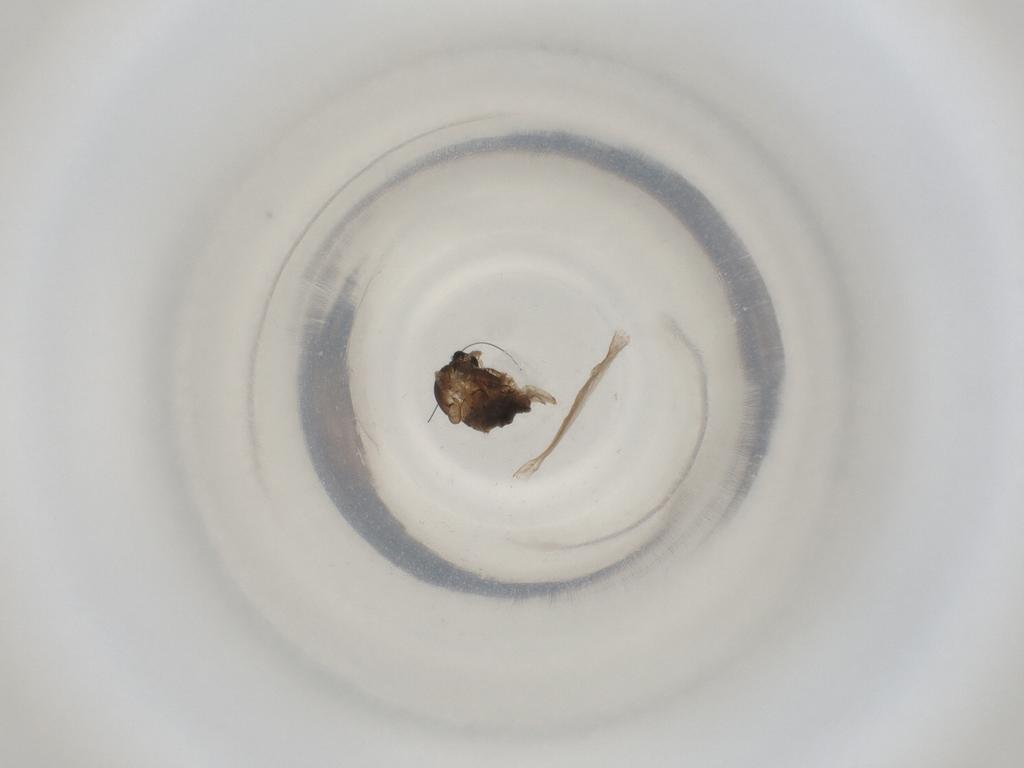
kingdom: Animalia
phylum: Arthropoda
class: Insecta
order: Diptera
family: Cecidomyiidae
